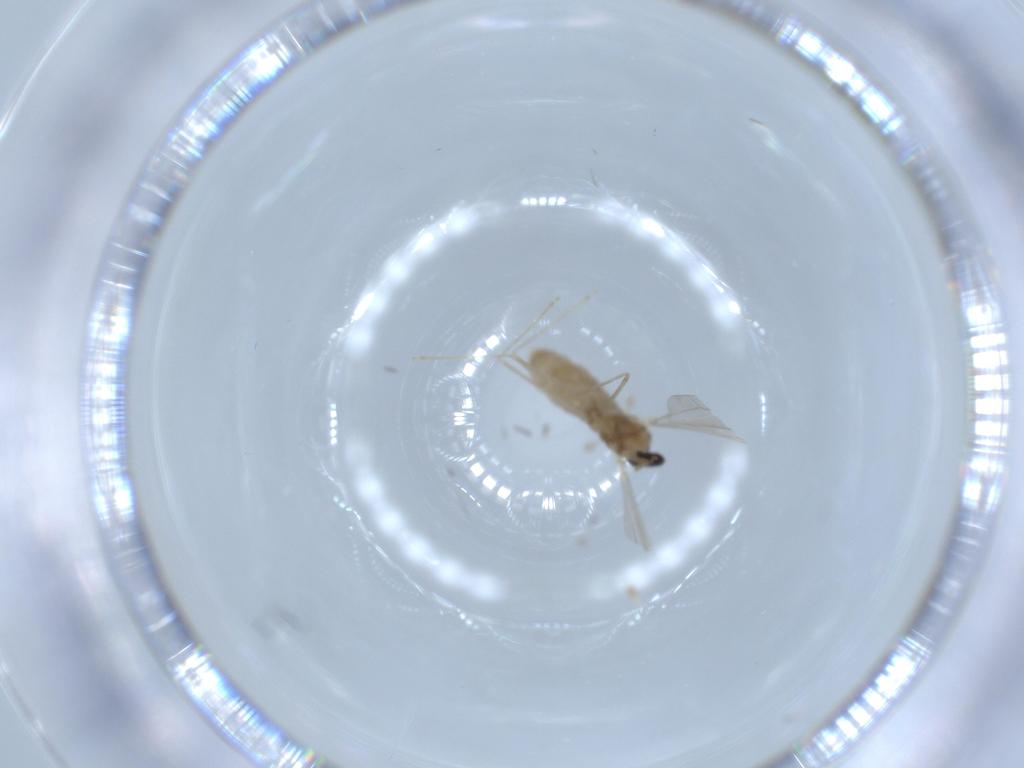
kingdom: Animalia
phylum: Arthropoda
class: Insecta
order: Diptera
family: Cecidomyiidae
